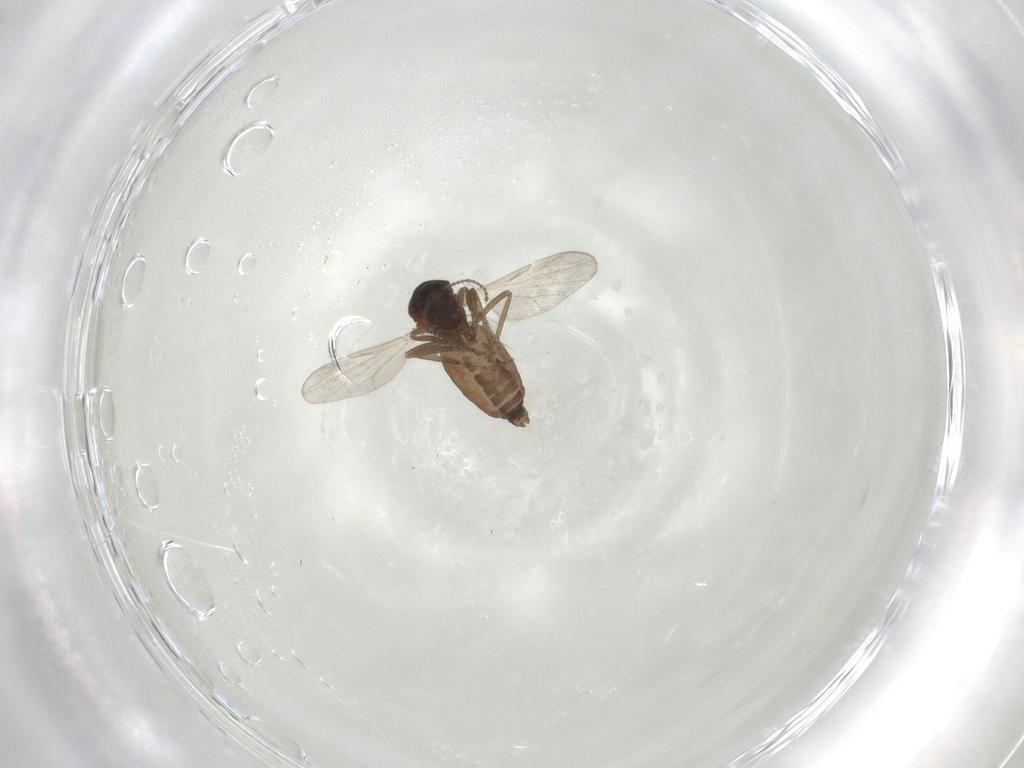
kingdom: Animalia
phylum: Arthropoda
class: Insecta
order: Diptera
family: Ceratopogonidae
